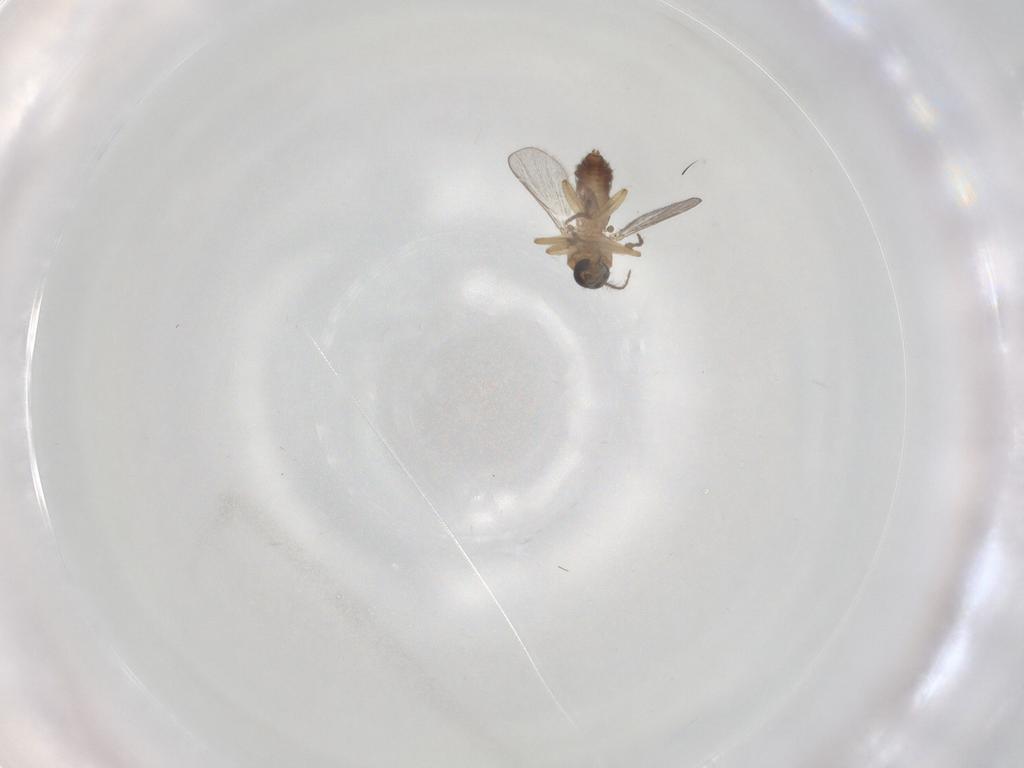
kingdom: Animalia
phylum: Arthropoda
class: Insecta
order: Diptera
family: Ceratopogonidae
